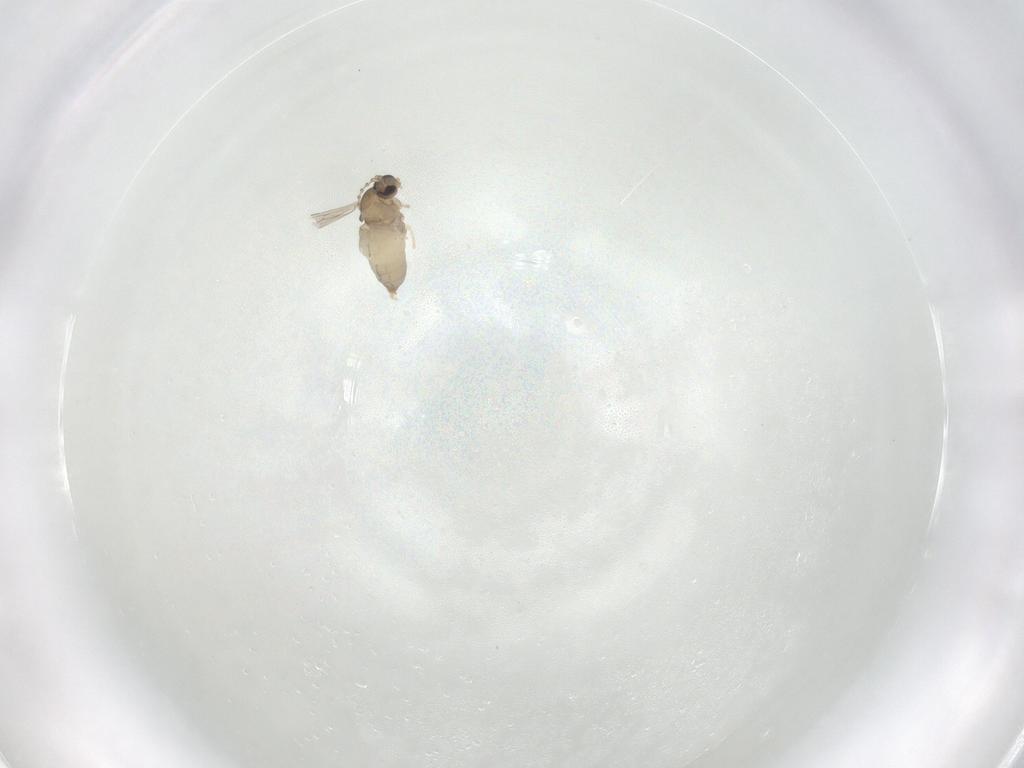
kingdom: Animalia
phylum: Arthropoda
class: Insecta
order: Diptera
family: Cecidomyiidae
